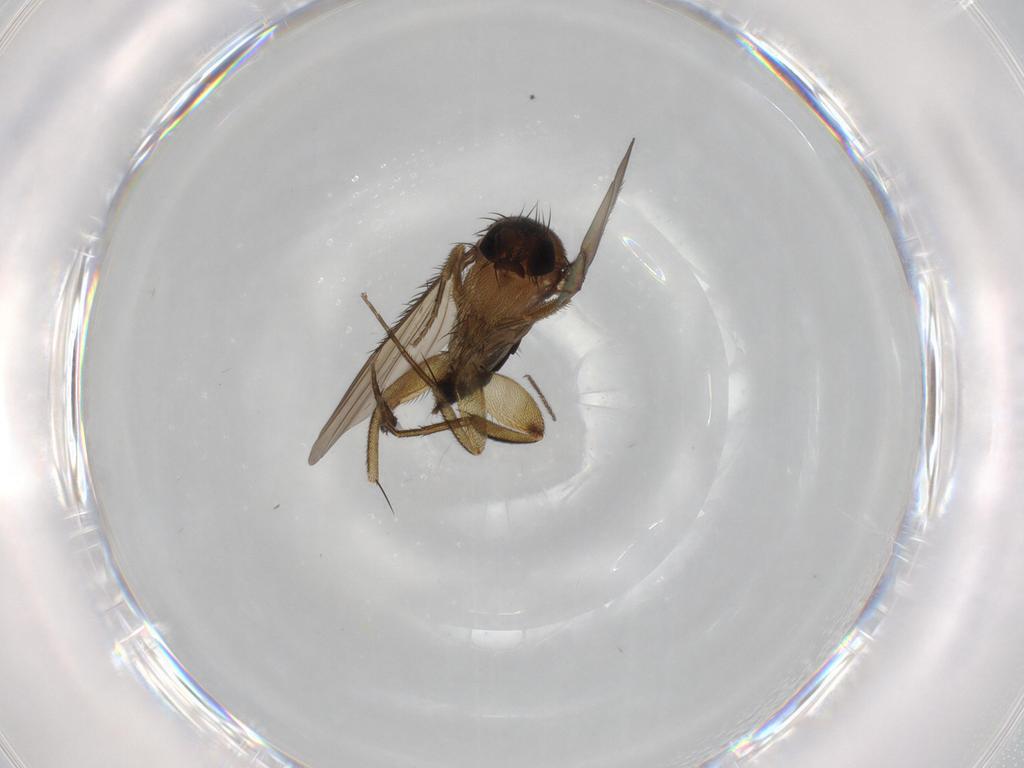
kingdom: Animalia
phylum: Arthropoda
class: Insecta
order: Diptera
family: Phoridae
